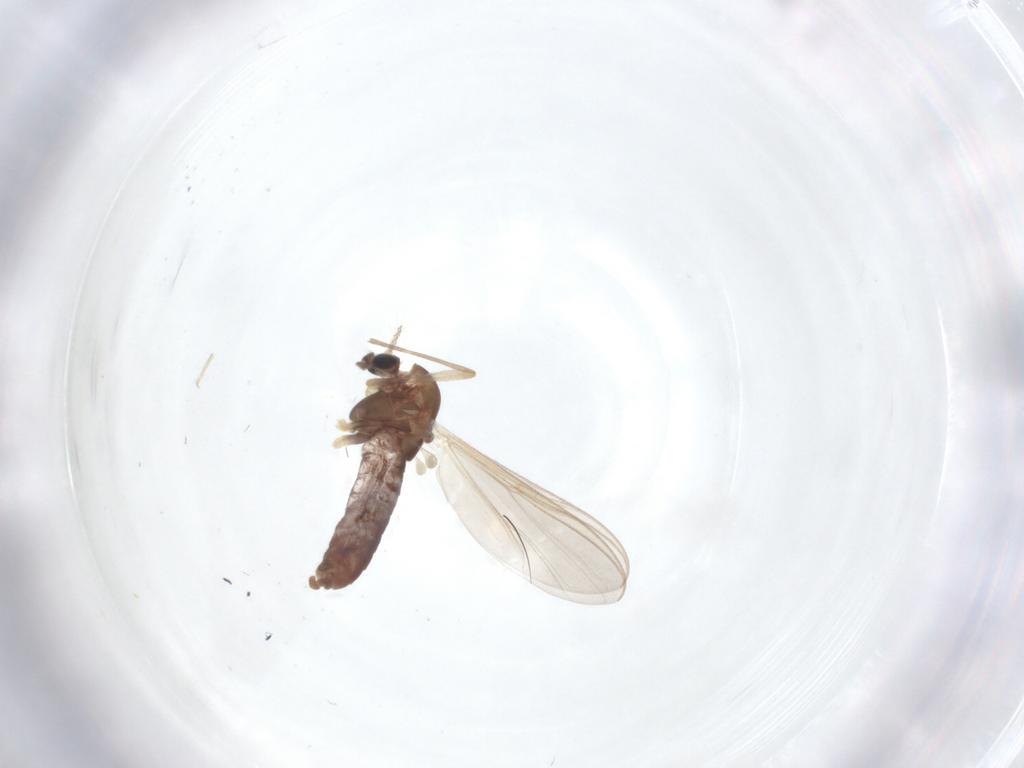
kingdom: Animalia
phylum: Arthropoda
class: Insecta
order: Diptera
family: Chironomidae
